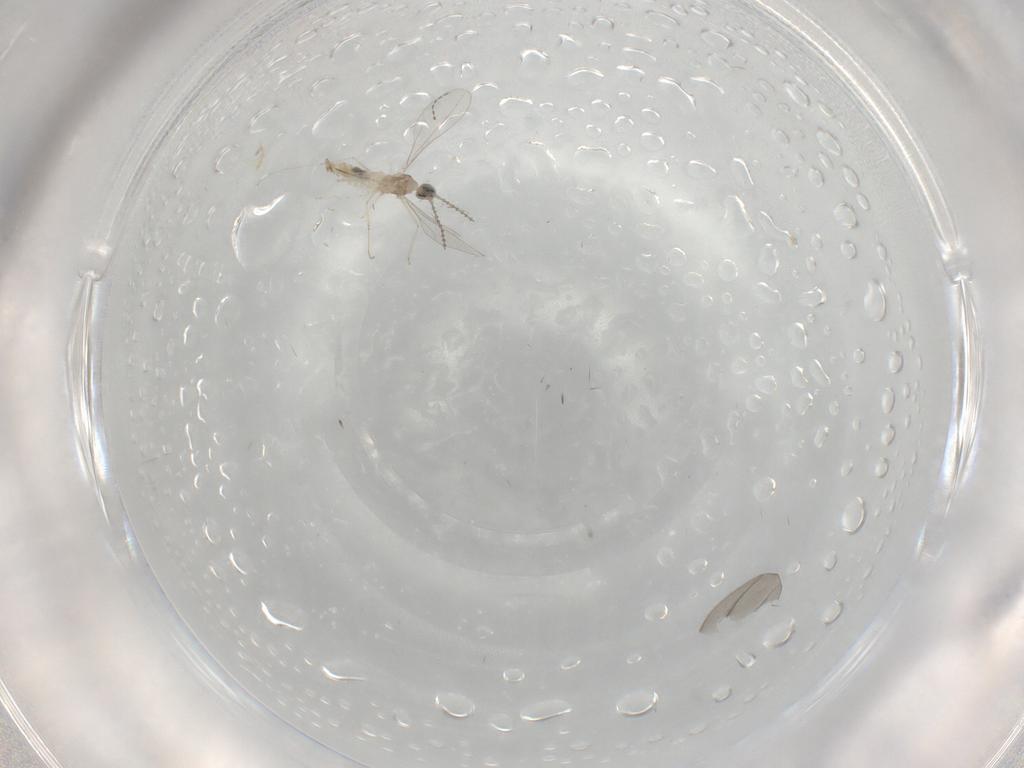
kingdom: Animalia
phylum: Arthropoda
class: Insecta
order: Diptera
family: Cecidomyiidae
